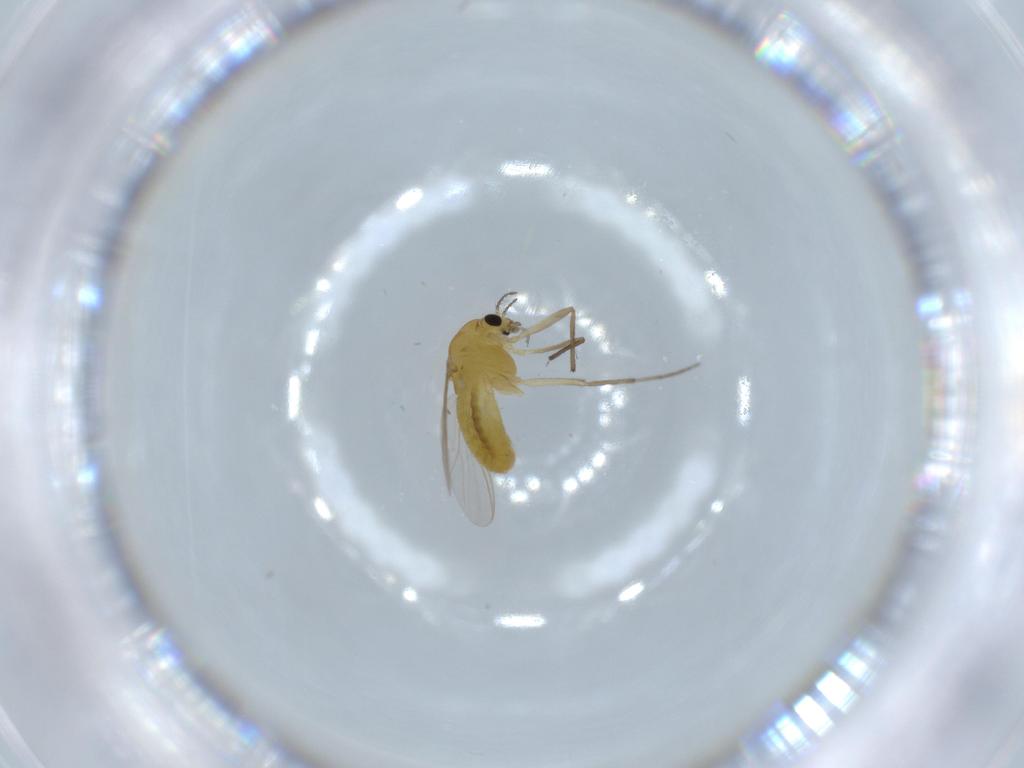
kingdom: Animalia
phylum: Arthropoda
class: Insecta
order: Diptera
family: Chironomidae
